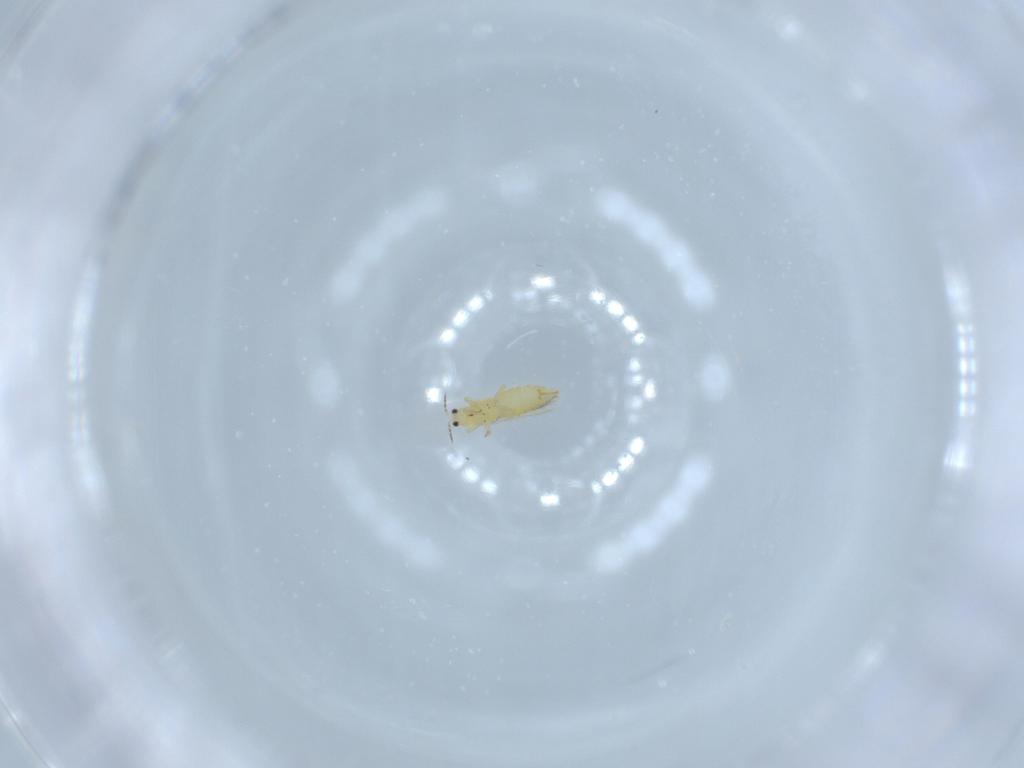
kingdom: Animalia
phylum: Arthropoda
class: Insecta
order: Thysanoptera
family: Thripidae
